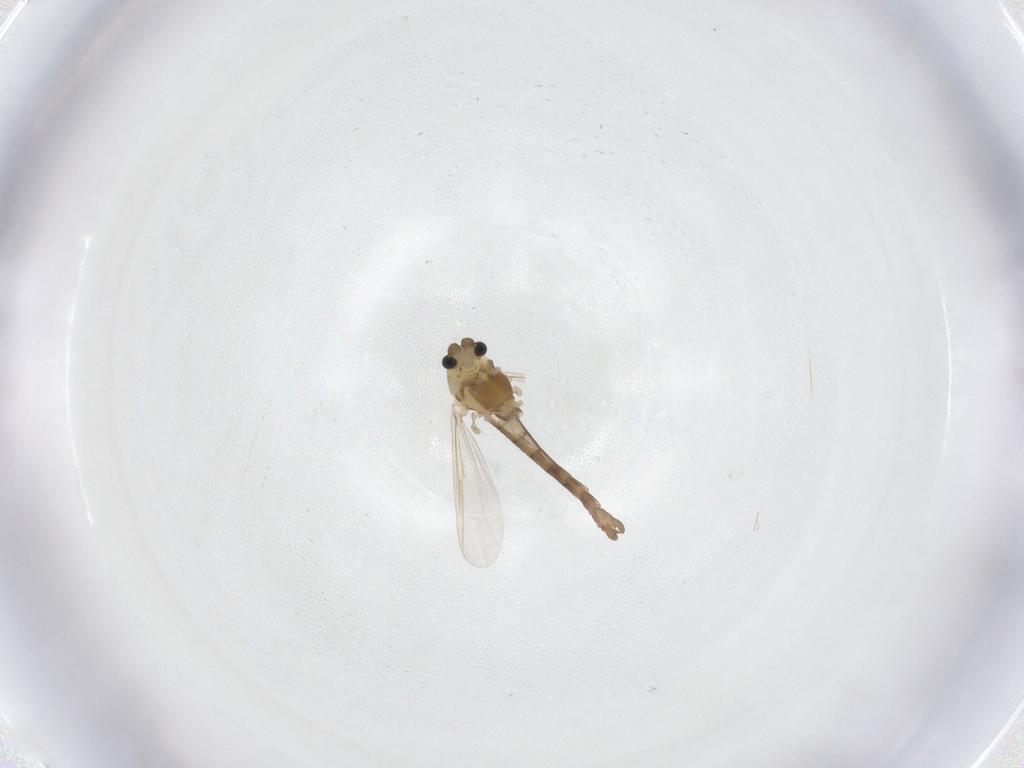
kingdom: Animalia
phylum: Arthropoda
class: Insecta
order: Diptera
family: Chironomidae
